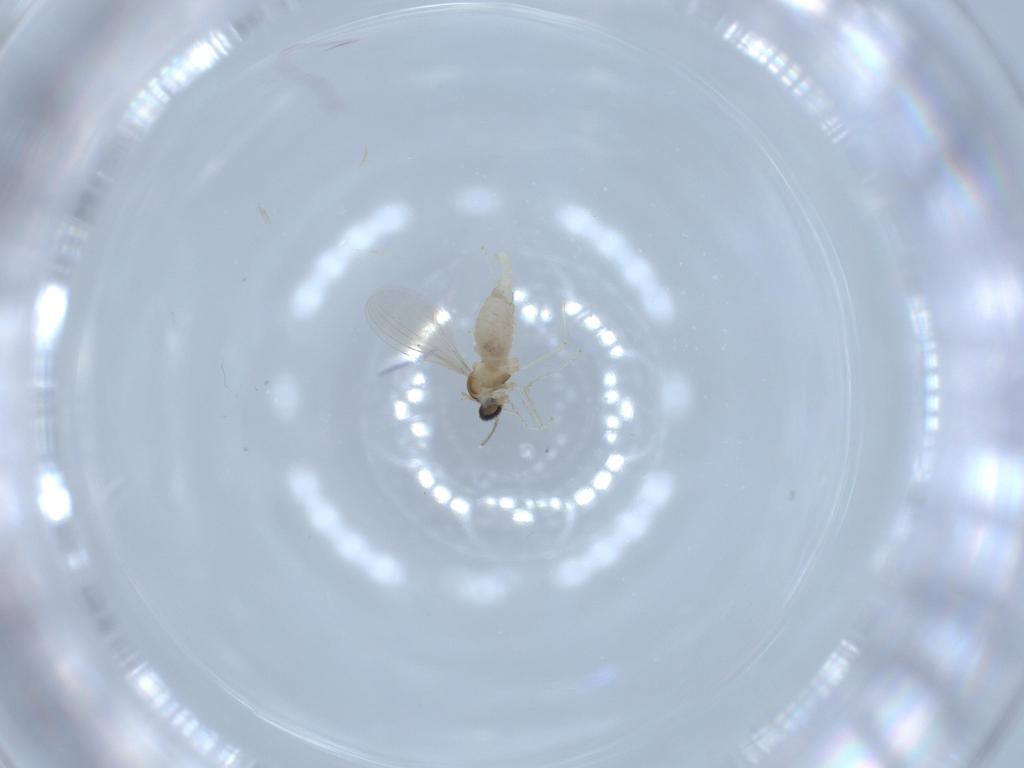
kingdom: Animalia
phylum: Arthropoda
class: Insecta
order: Diptera
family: Cecidomyiidae
